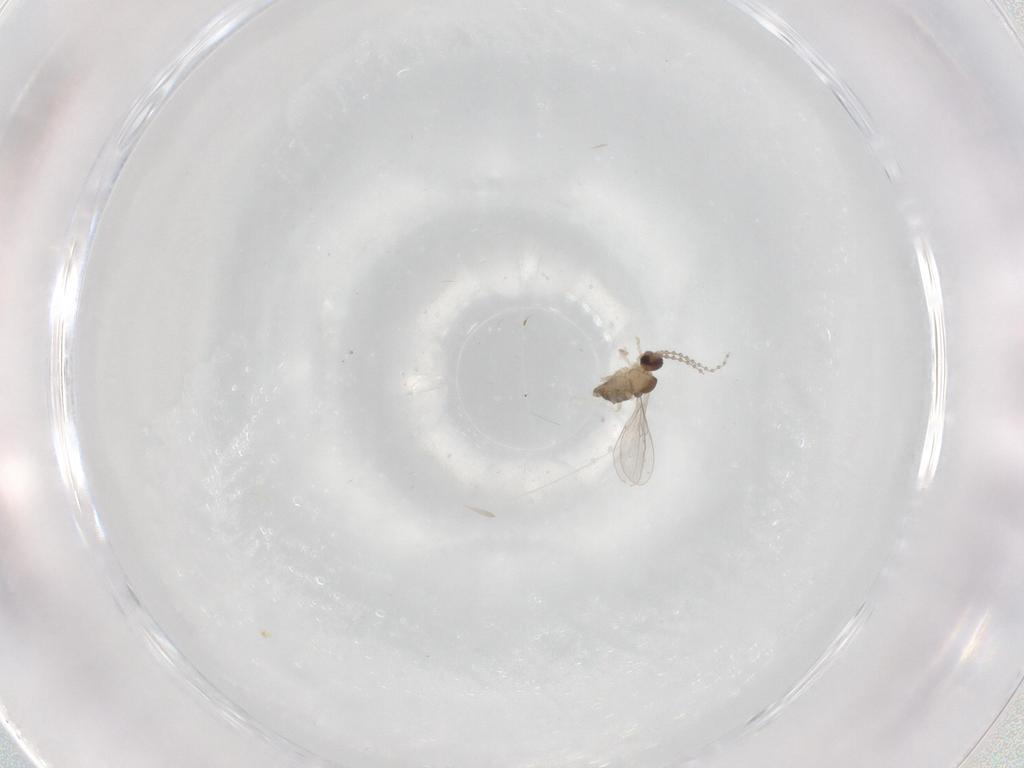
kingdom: Animalia
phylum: Arthropoda
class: Insecta
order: Diptera
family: Cecidomyiidae
